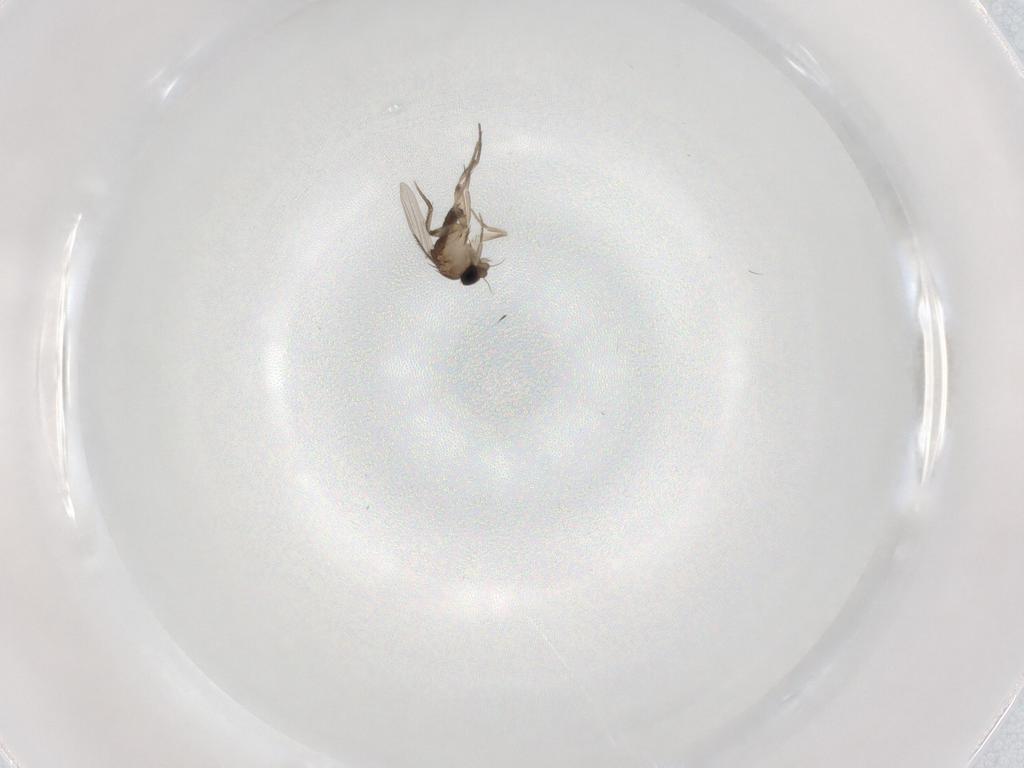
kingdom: Animalia
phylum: Arthropoda
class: Insecta
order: Diptera
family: Phoridae
